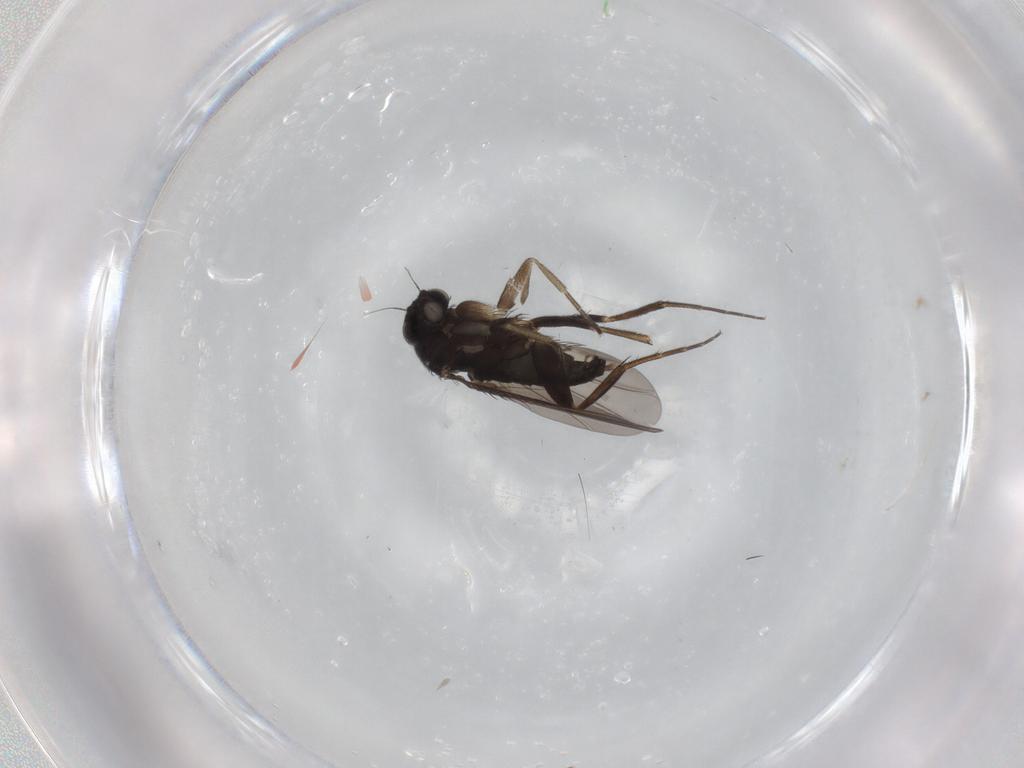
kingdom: Animalia
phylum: Arthropoda
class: Insecta
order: Diptera
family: Phoridae
